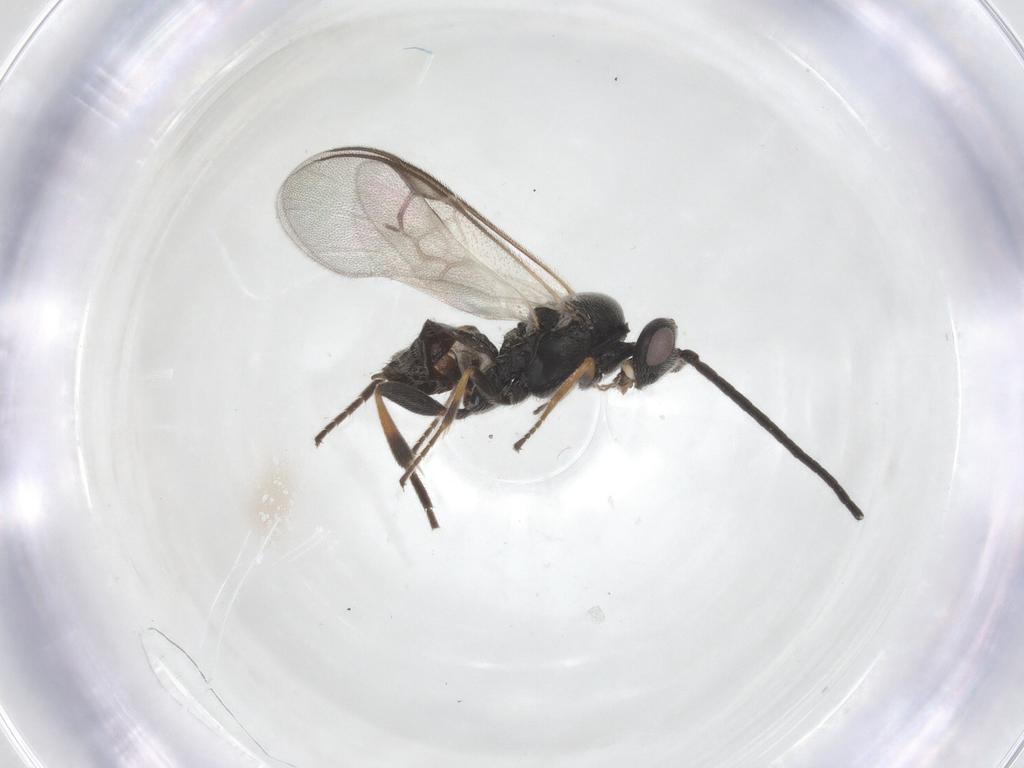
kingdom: Animalia
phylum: Arthropoda
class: Insecta
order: Hymenoptera
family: Braconidae
